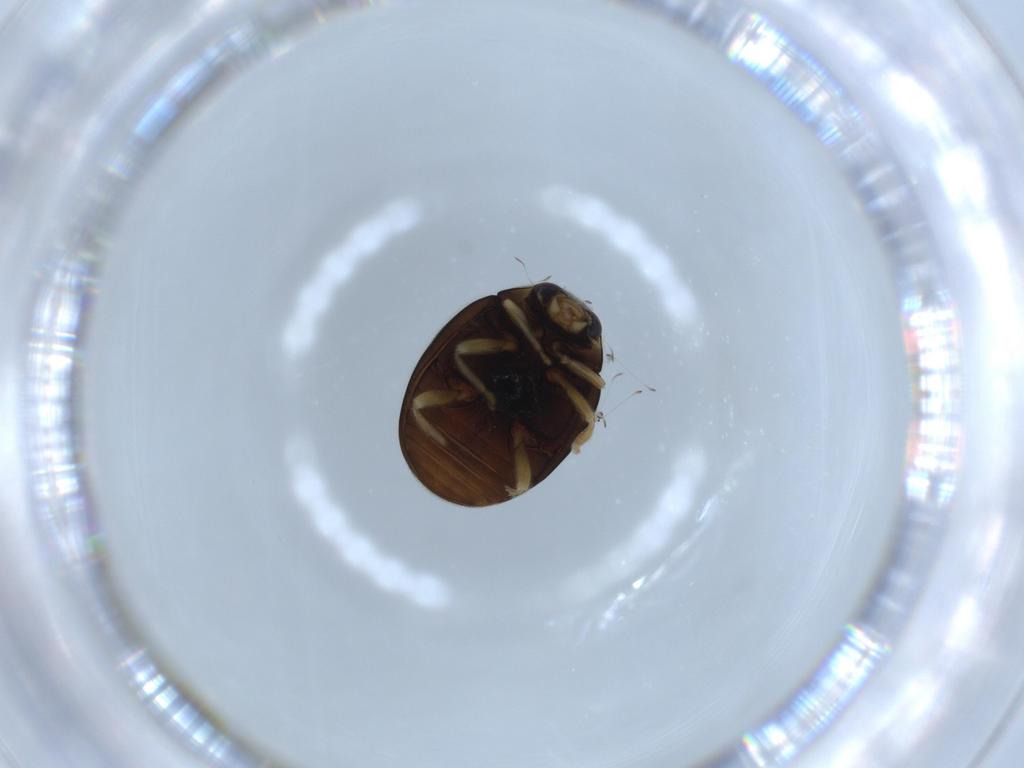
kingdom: Animalia
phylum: Arthropoda
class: Insecta
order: Coleoptera
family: Coccinellidae
